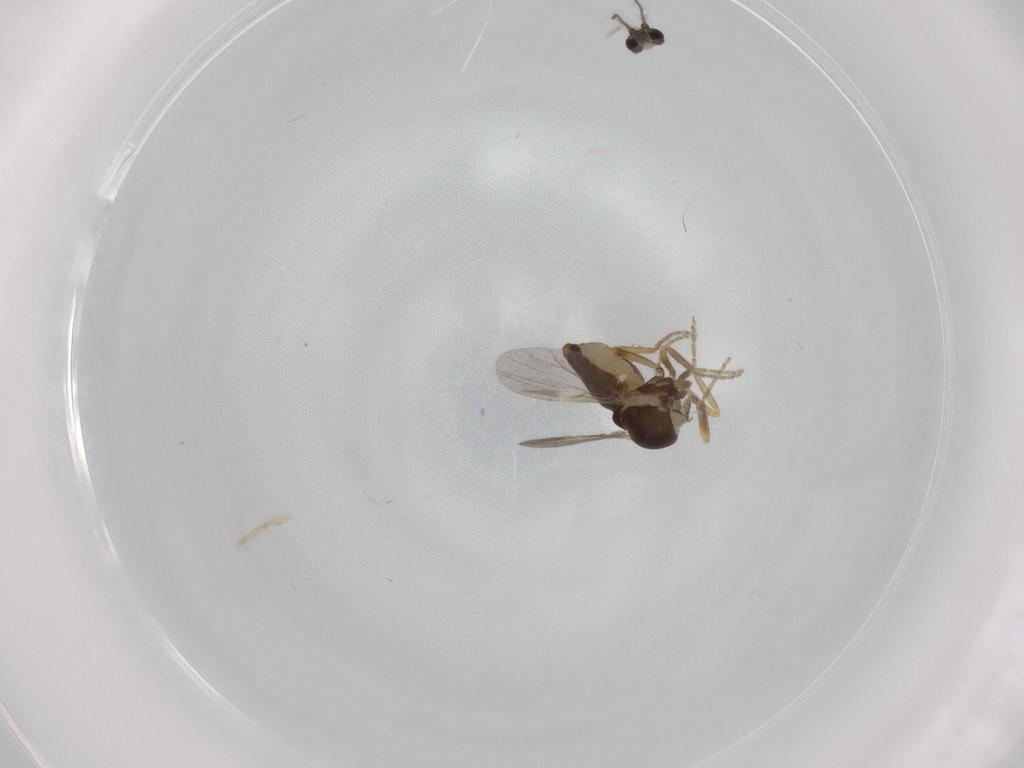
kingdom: Animalia
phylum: Arthropoda
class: Insecta
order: Diptera
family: Ceratopogonidae
